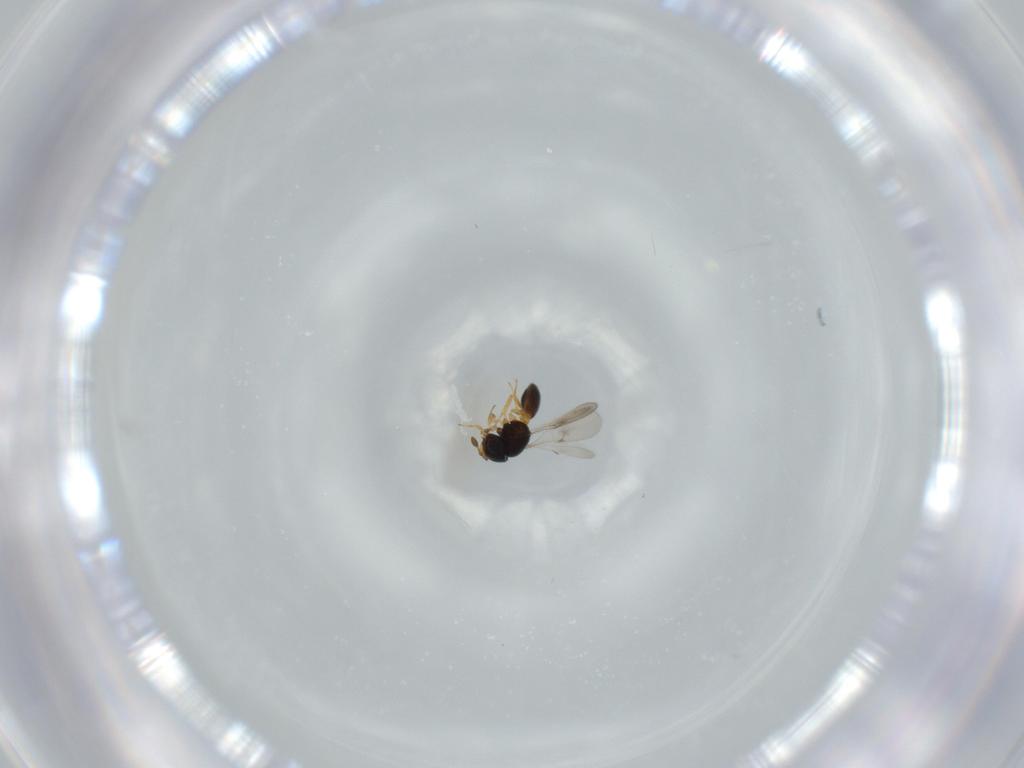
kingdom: Animalia
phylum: Arthropoda
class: Insecta
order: Hymenoptera
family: Scelionidae
